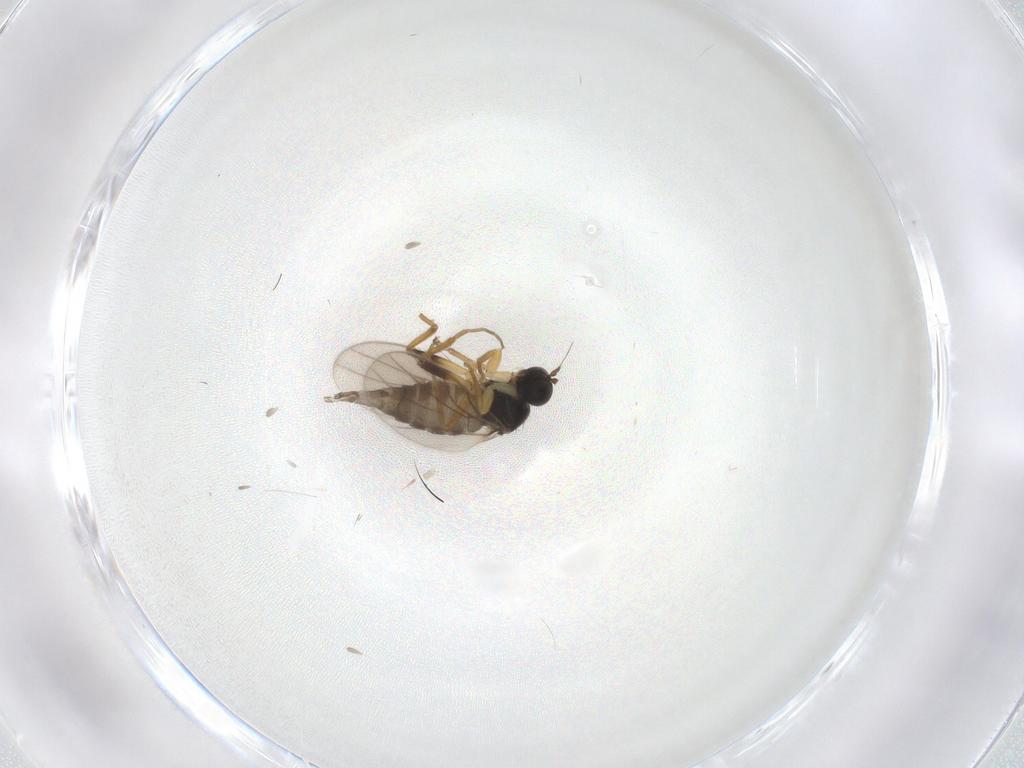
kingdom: Animalia
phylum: Arthropoda
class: Insecta
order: Diptera
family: Hybotidae
